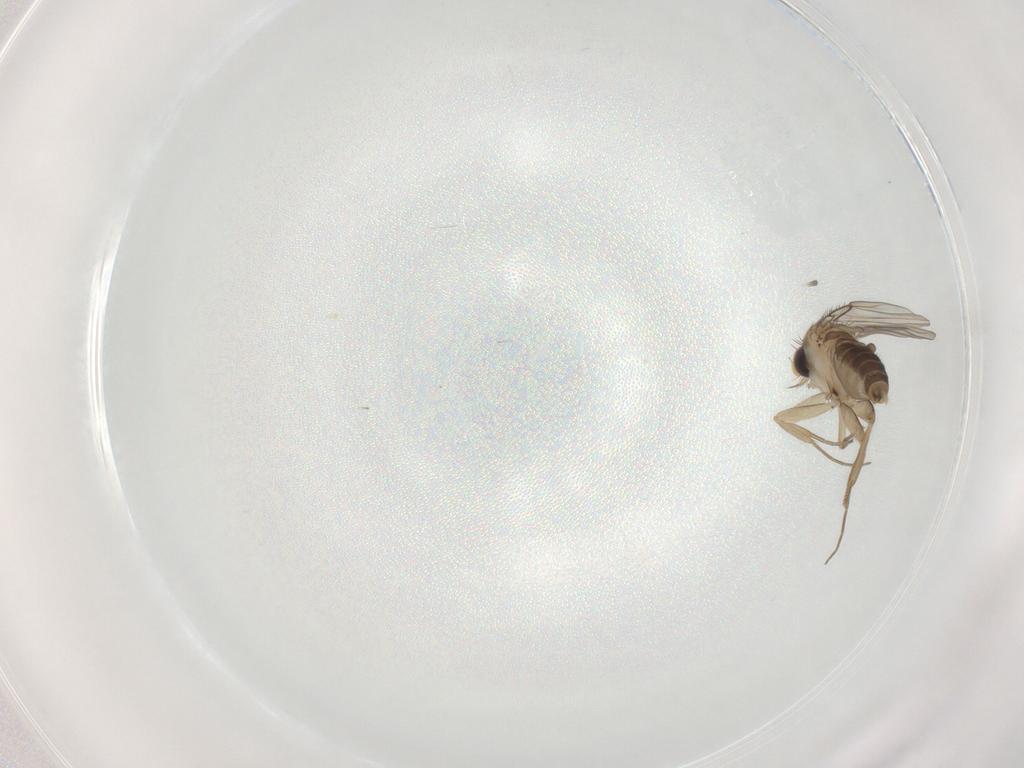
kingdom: Animalia
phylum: Arthropoda
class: Insecta
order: Diptera
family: Phoridae
